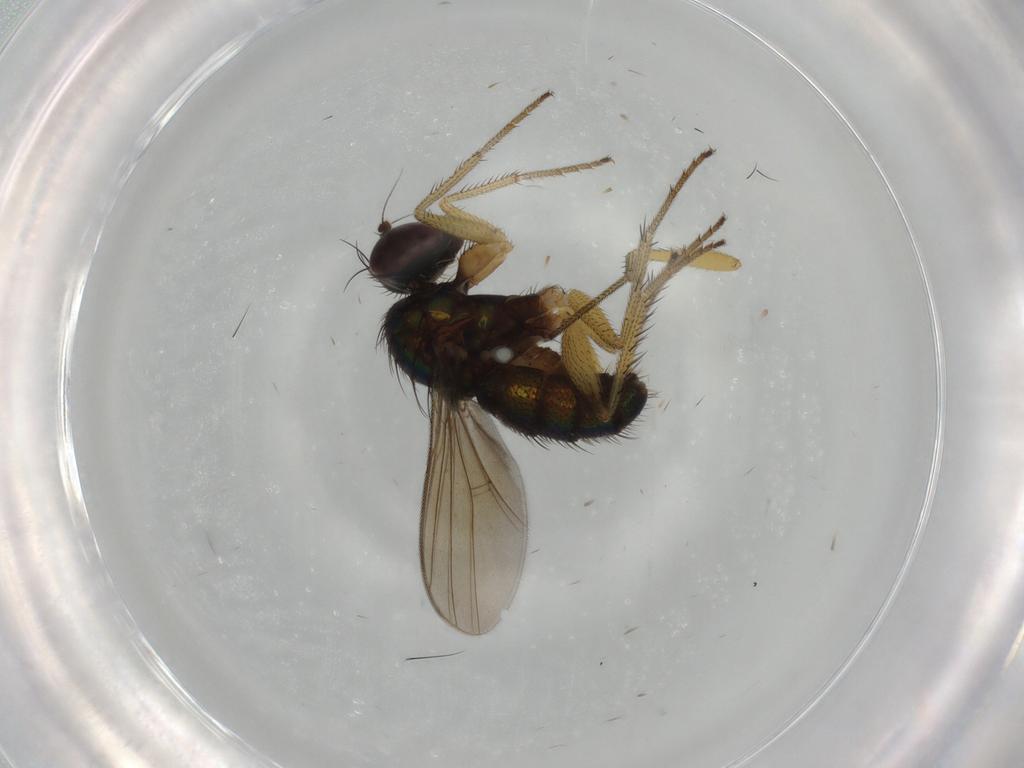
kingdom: Animalia
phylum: Arthropoda
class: Insecta
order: Diptera
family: Dolichopodidae
